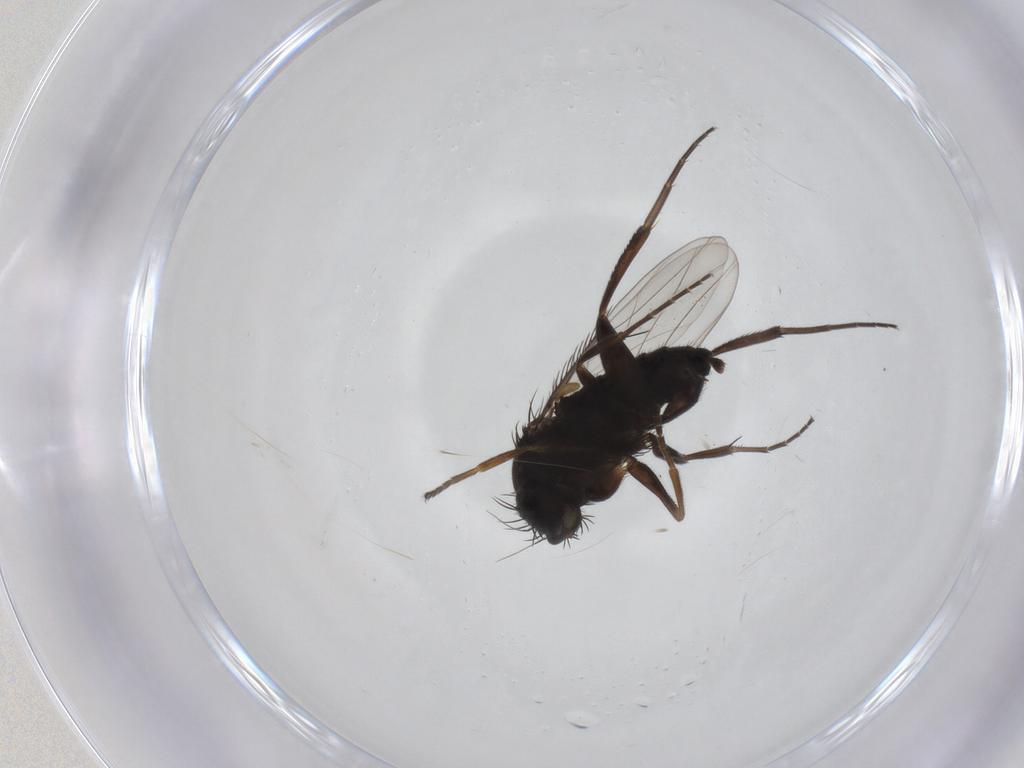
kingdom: Animalia
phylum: Arthropoda
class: Insecta
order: Diptera
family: Phoridae
